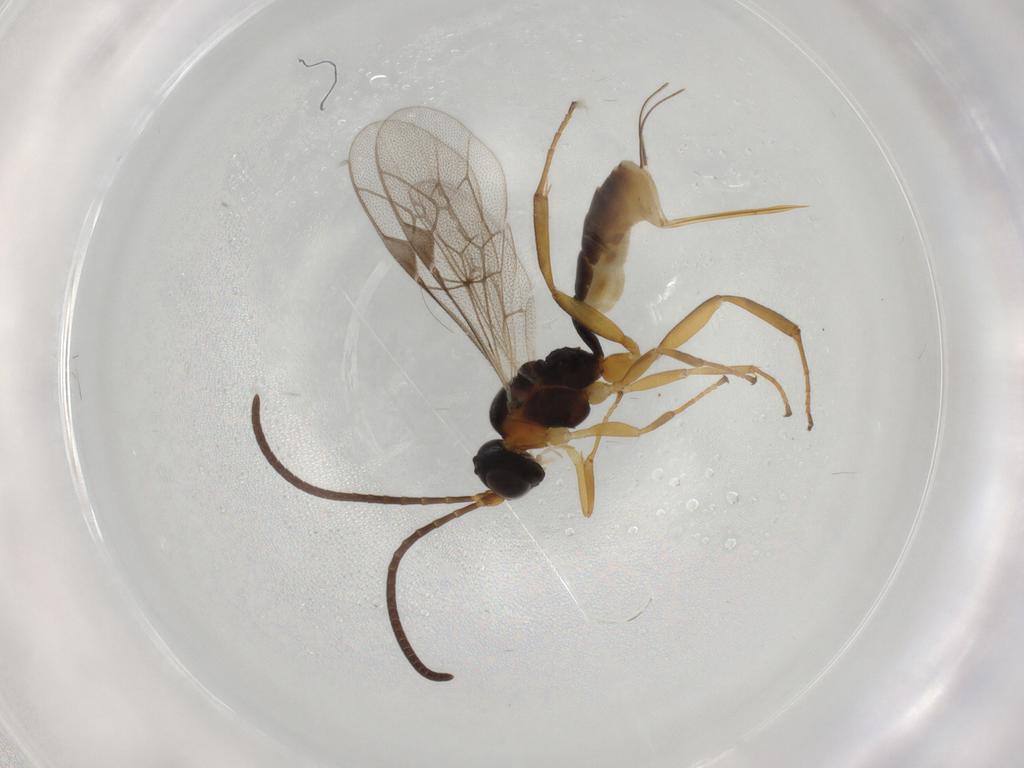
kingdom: Animalia
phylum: Arthropoda
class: Insecta
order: Hymenoptera
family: Ichneumonidae
